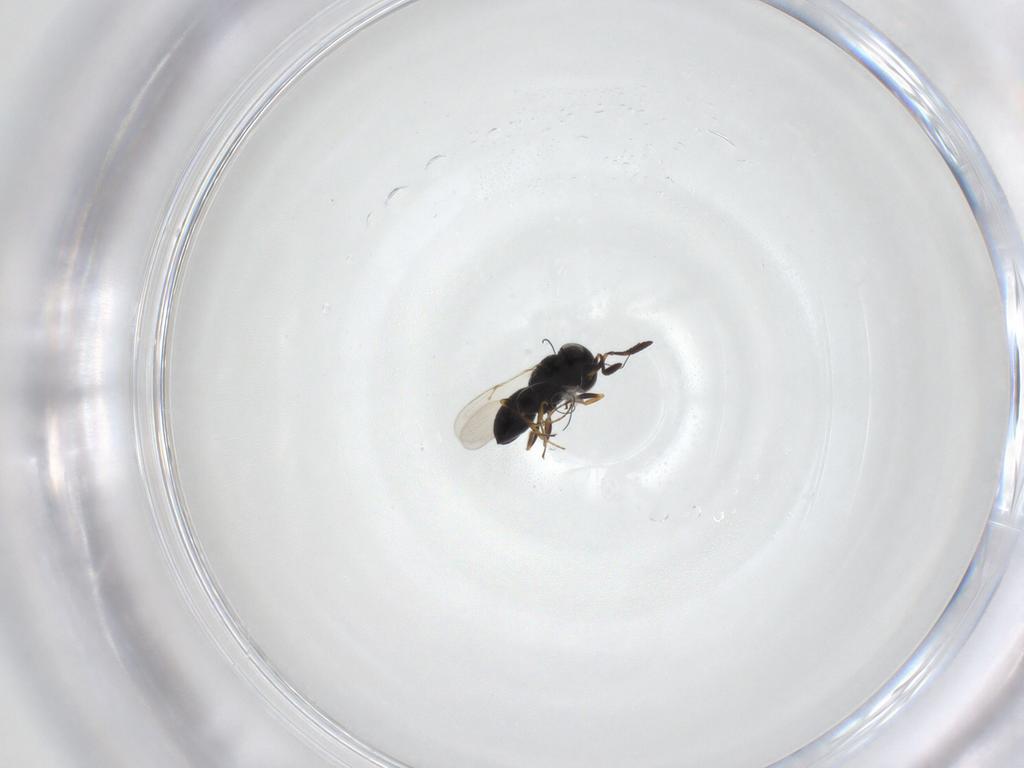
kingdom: Animalia
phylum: Arthropoda
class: Insecta
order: Hymenoptera
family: Scelionidae
